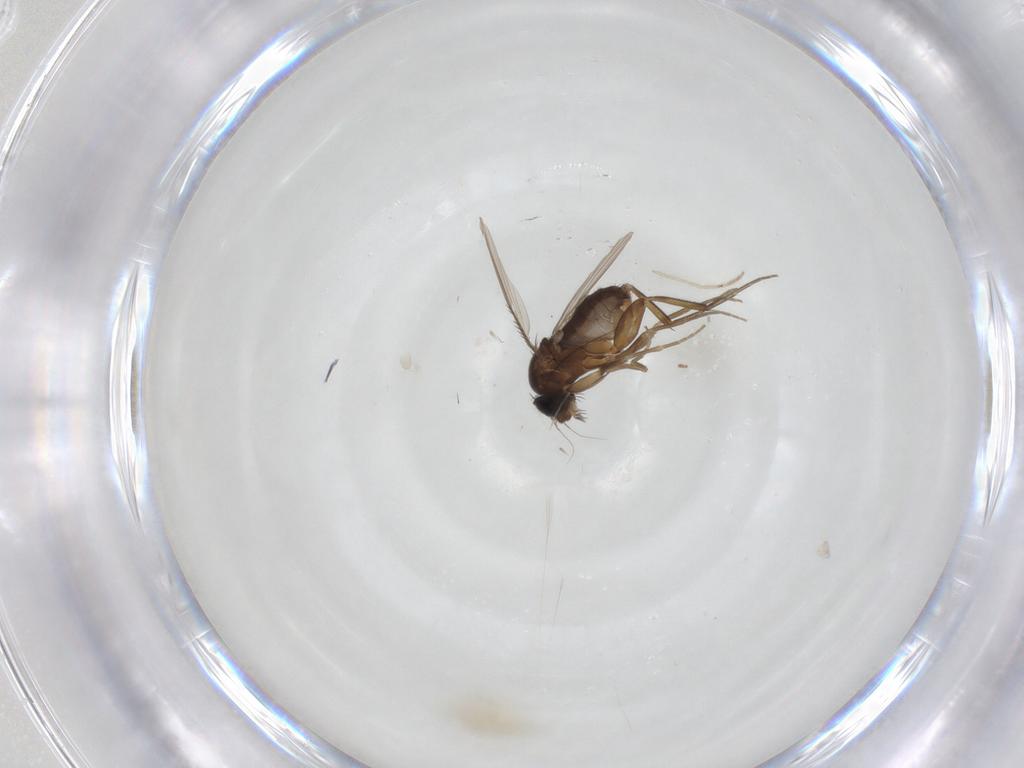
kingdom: Animalia
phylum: Arthropoda
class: Insecta
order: Diptera
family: Phoridae
